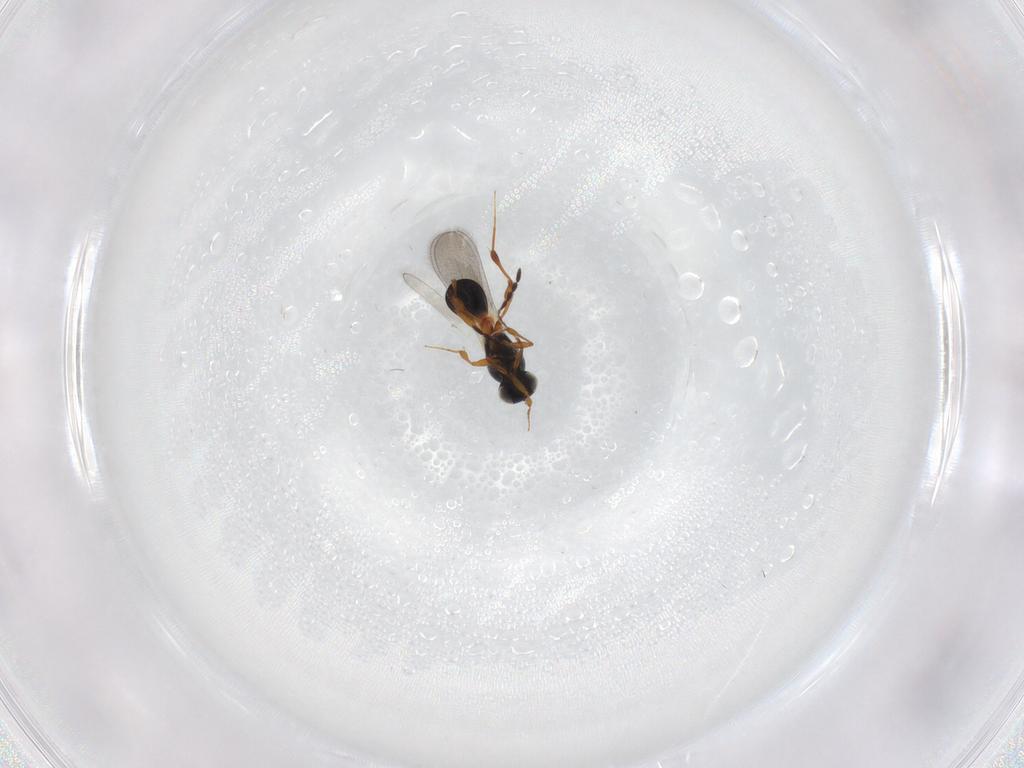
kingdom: Animalia
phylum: Arthropoda
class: Insecta
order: Hymenoptera
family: Platygastridae
